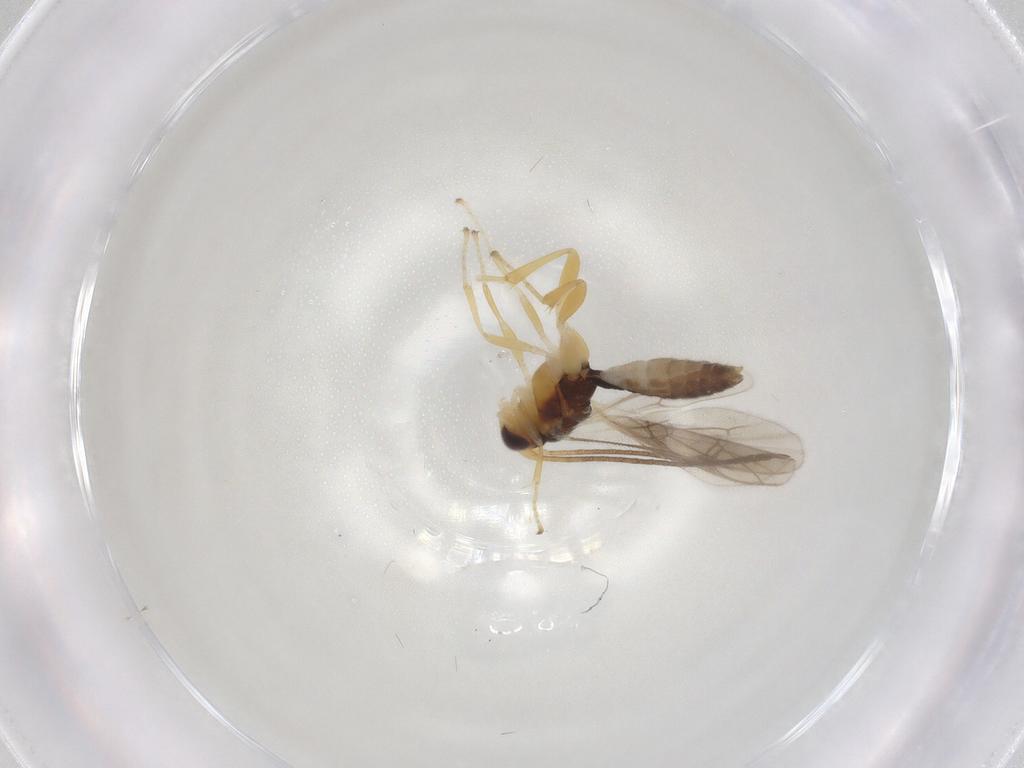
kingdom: Animalia
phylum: Arthropoda
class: Insecta
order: Hymenoptera
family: Ichneumonidae
